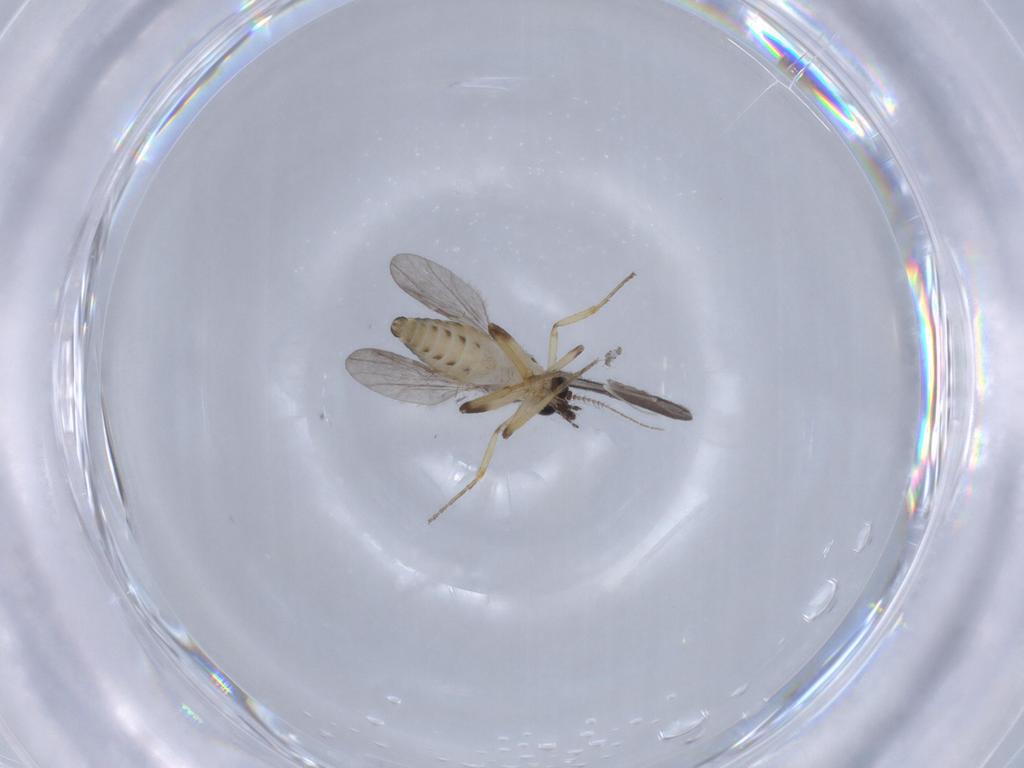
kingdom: Animalia
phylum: Arthropoda
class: Insecta
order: Diptera
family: Ceratopogonidae
